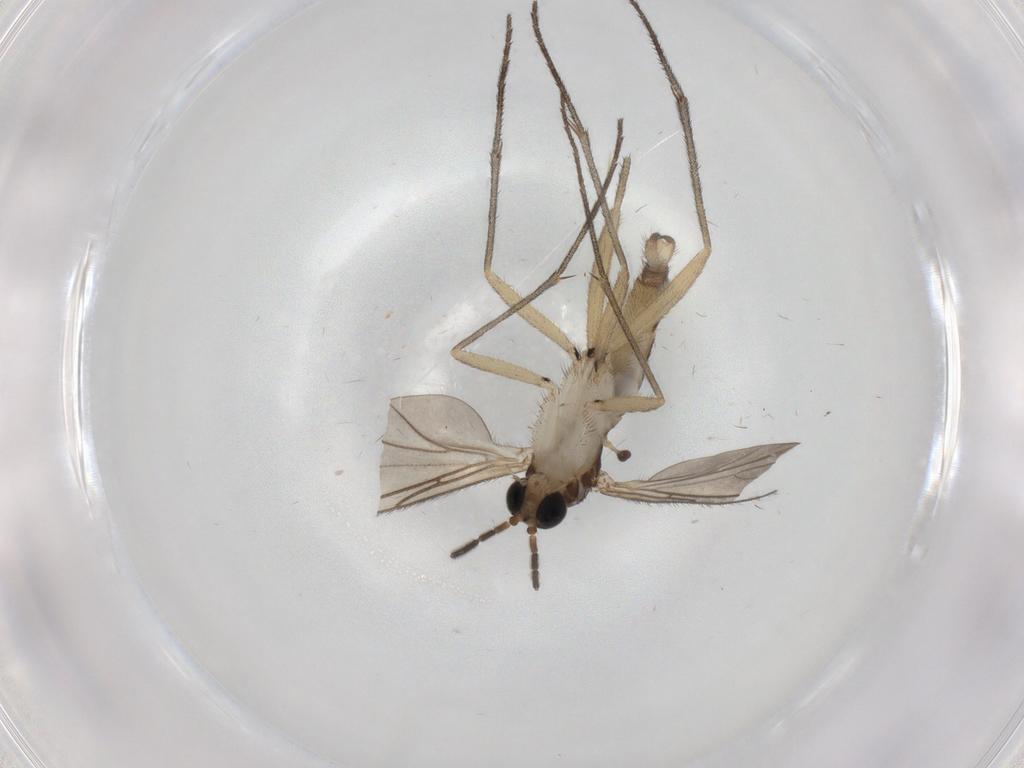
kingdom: Animalia
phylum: Arthropoda
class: Insecta
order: Diptera
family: Sciaridae
